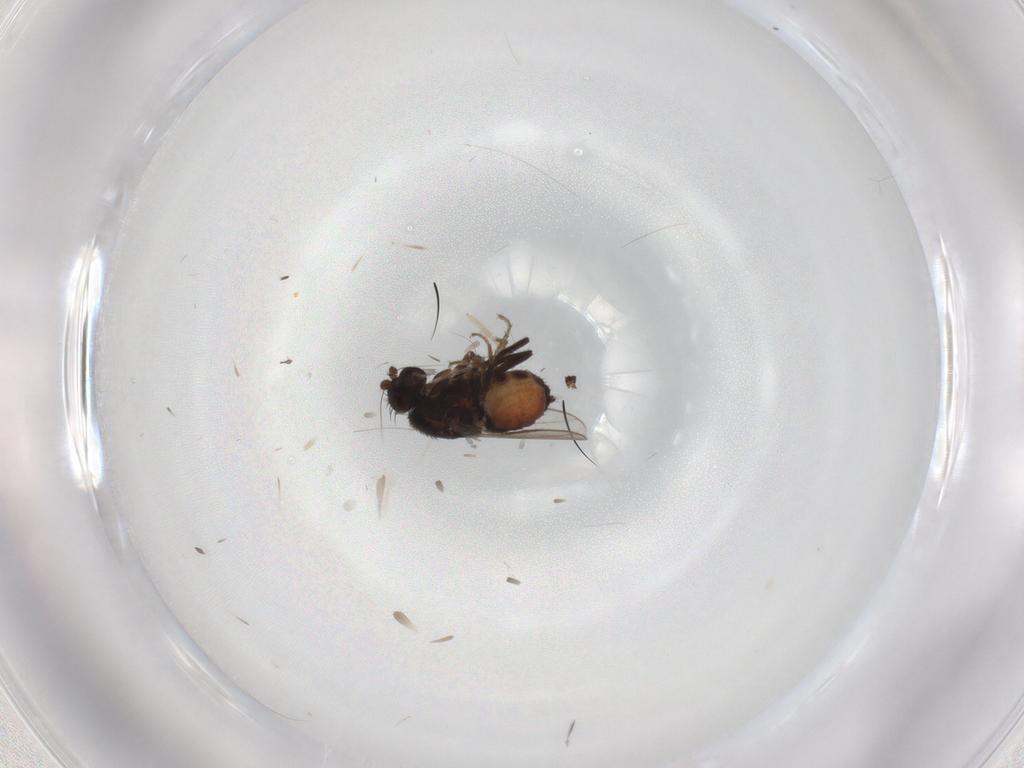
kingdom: Animalia
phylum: Arthropoda
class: Insecta
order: Diptera
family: Sphaeroceridae
